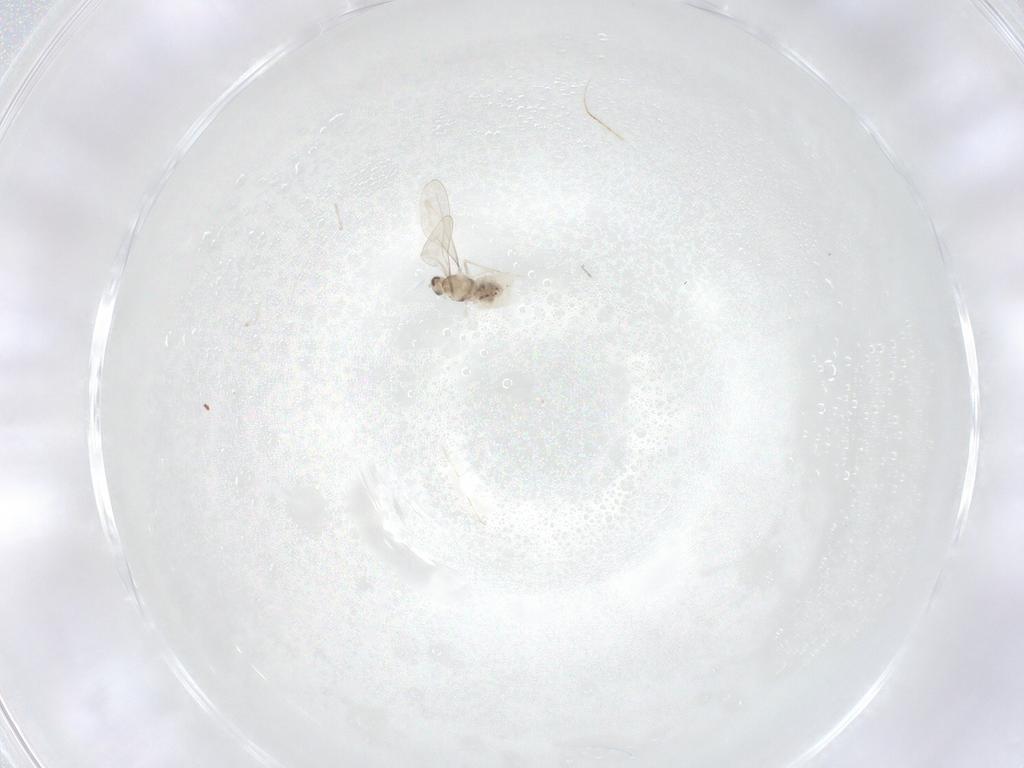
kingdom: Animalia
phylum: Arthropoda
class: Insecta
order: Diptera
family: Cecidomyiidae
